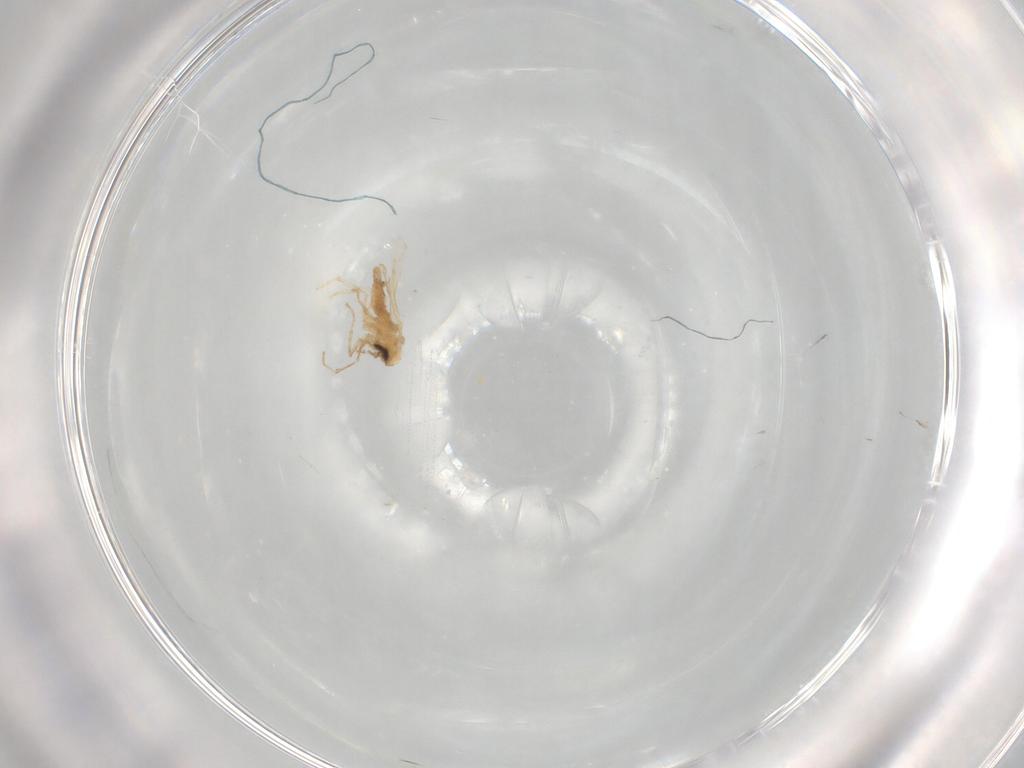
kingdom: Animalia
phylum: Arthropoda
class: Insecta
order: Diptera
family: Psychodidae
